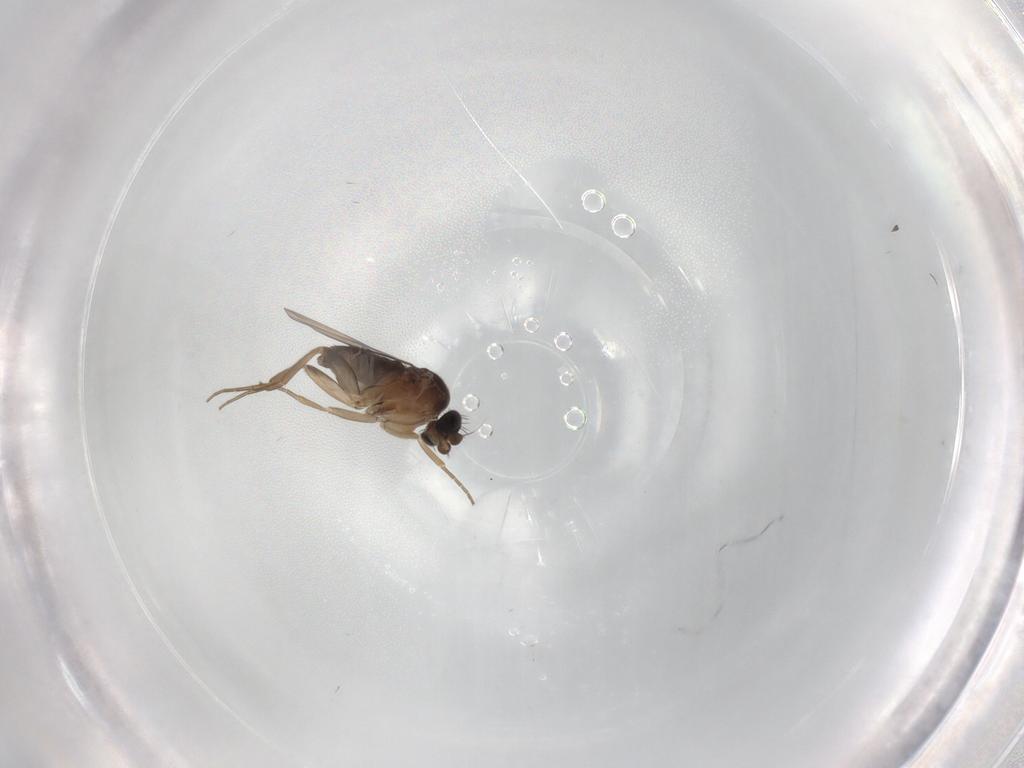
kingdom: Animalia
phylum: Arthropoda
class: Insecta
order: Diptera
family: Phoridae
